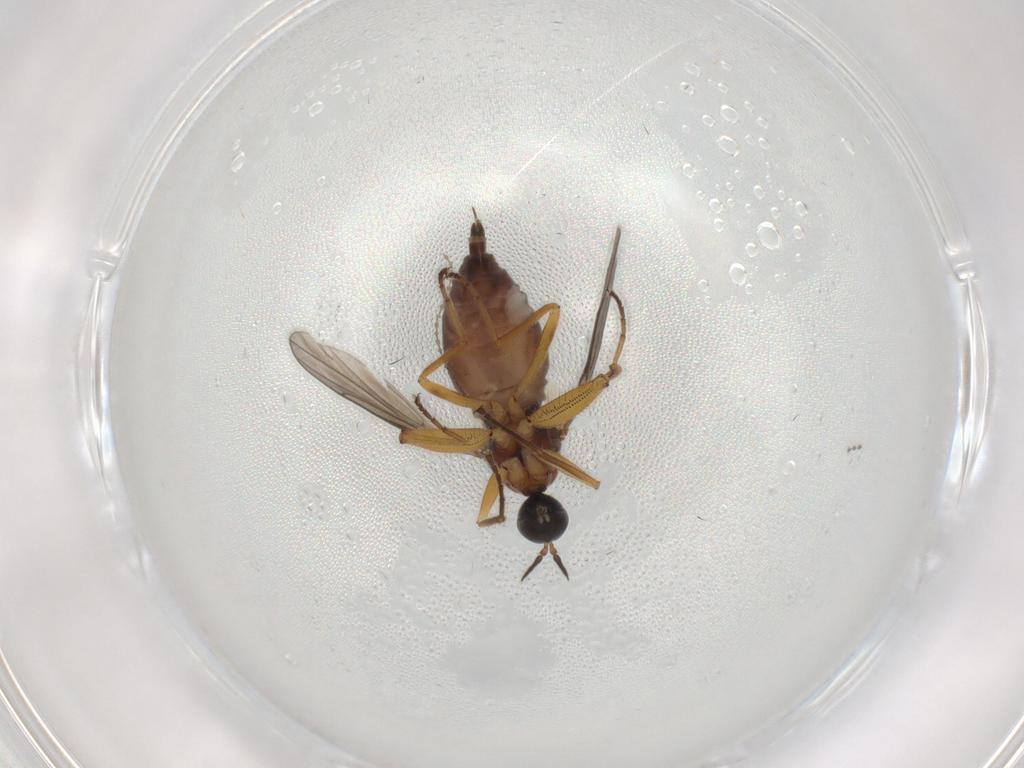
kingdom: Animalia
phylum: Arthropoda
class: Insecta
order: Diptera
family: Hybotidae
